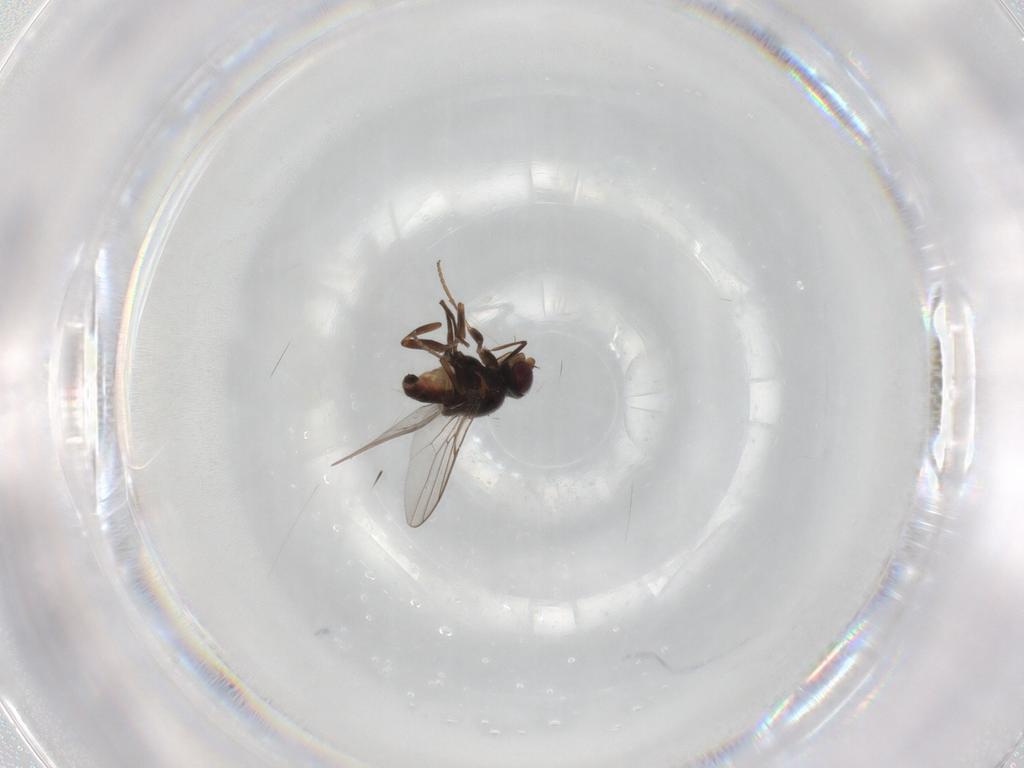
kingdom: Animalia
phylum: Arthropoda
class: Insecta
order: Diptera
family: Chloropidae
